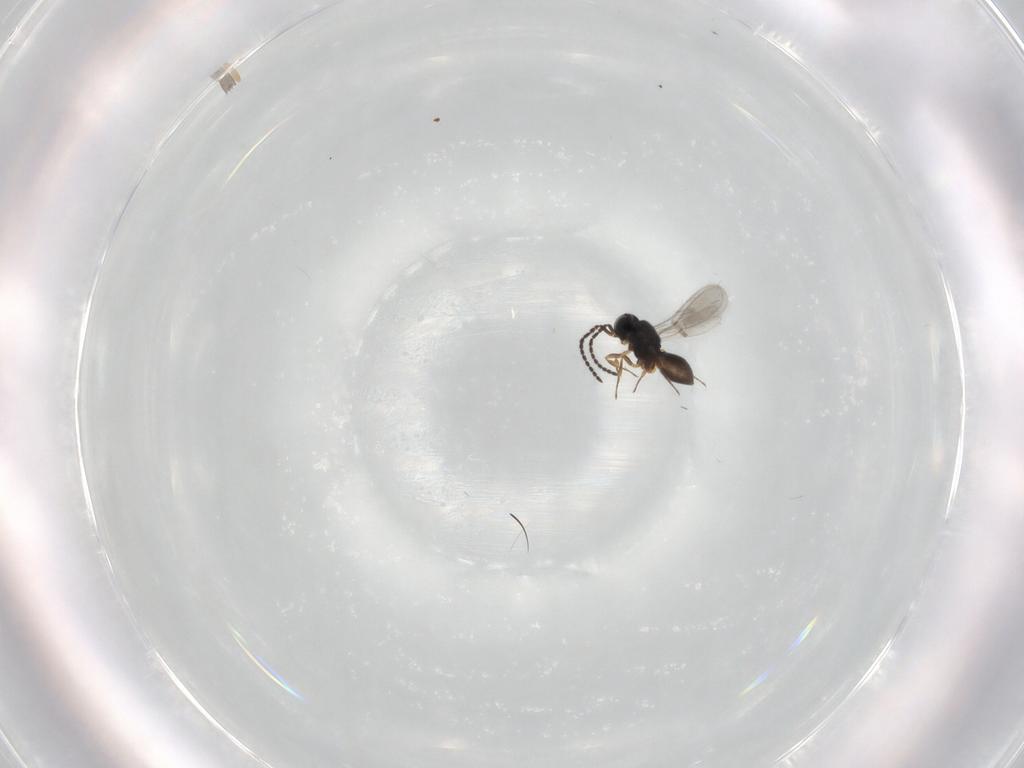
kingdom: Animalia
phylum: Arthropoda
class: Insecta
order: Hymenoptera
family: Scelionidae
